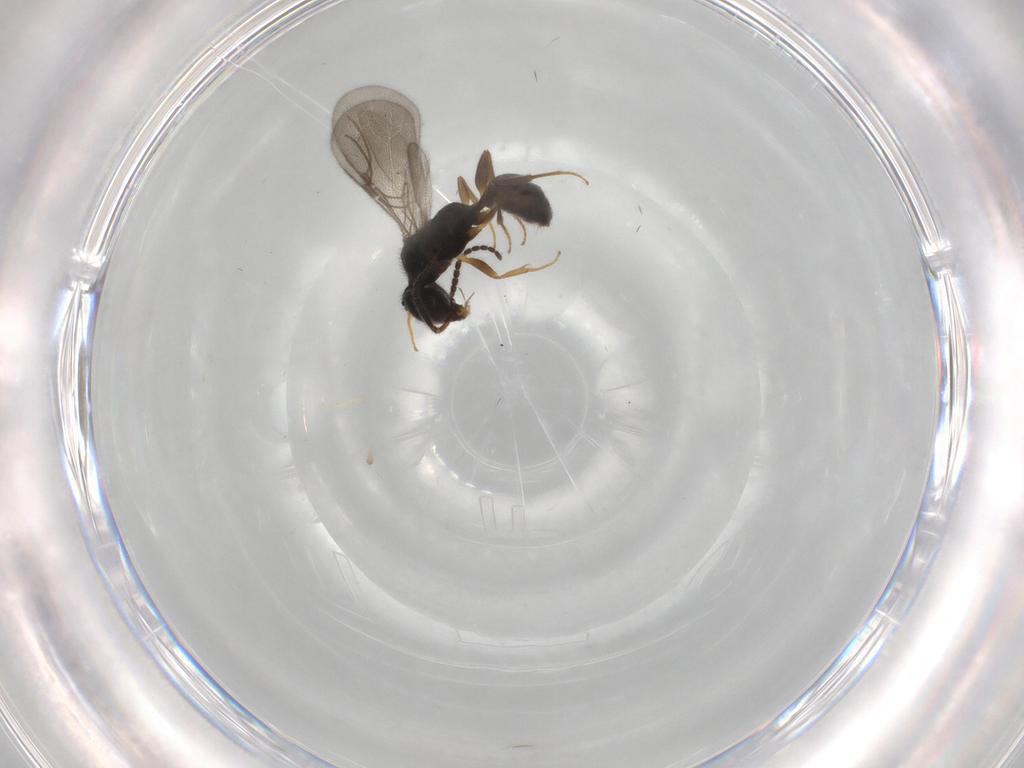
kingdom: Animalia
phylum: Arthropoda
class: Insecta
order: Hymenoptera
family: Bethylidae
